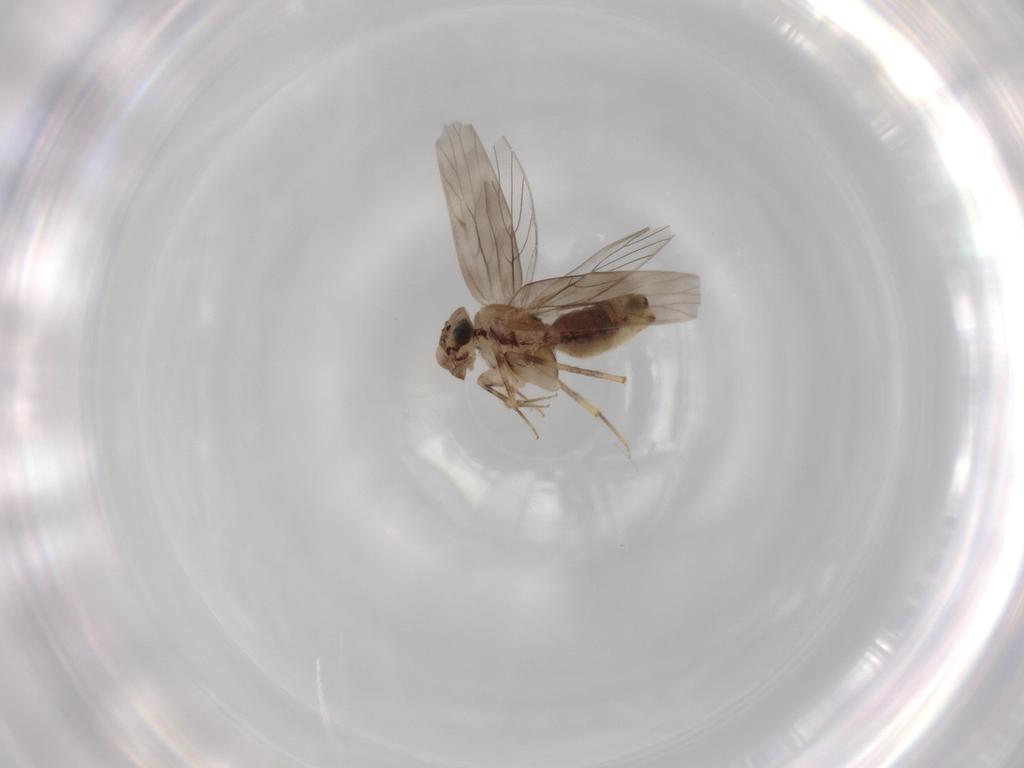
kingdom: Animalia
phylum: Arthropoda
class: Insecta
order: Psocodea
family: Lepidopsocidae
